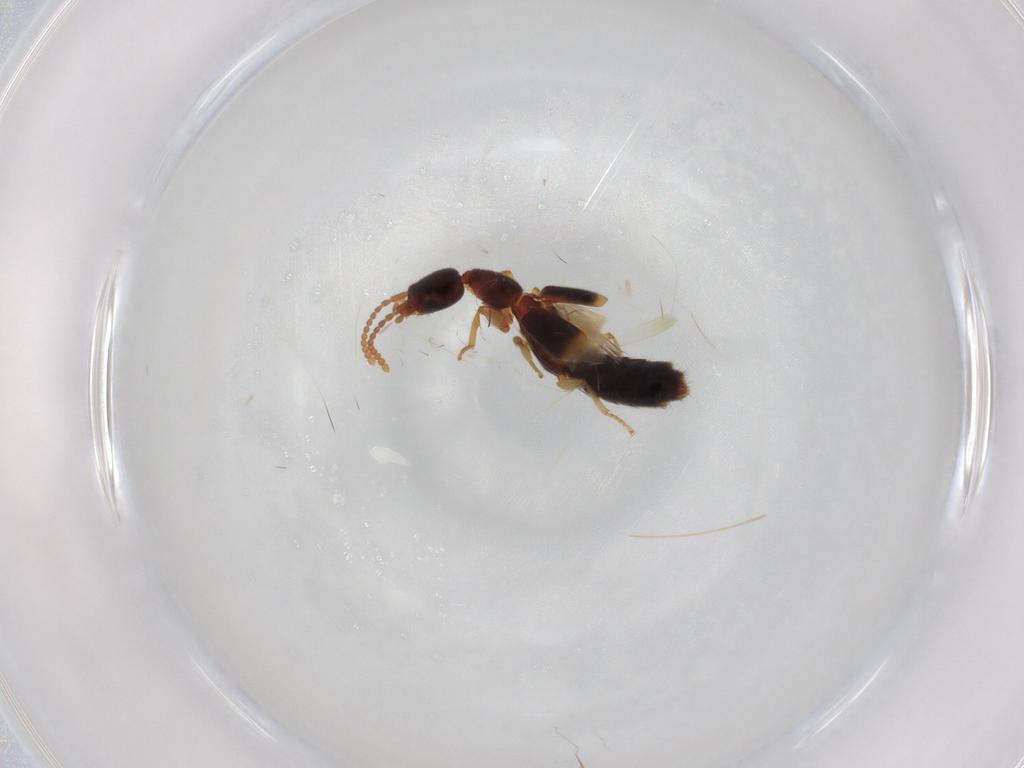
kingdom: Animalia
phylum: Arthropoda
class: Insecta
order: Coleoptera
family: Staphylinidae
